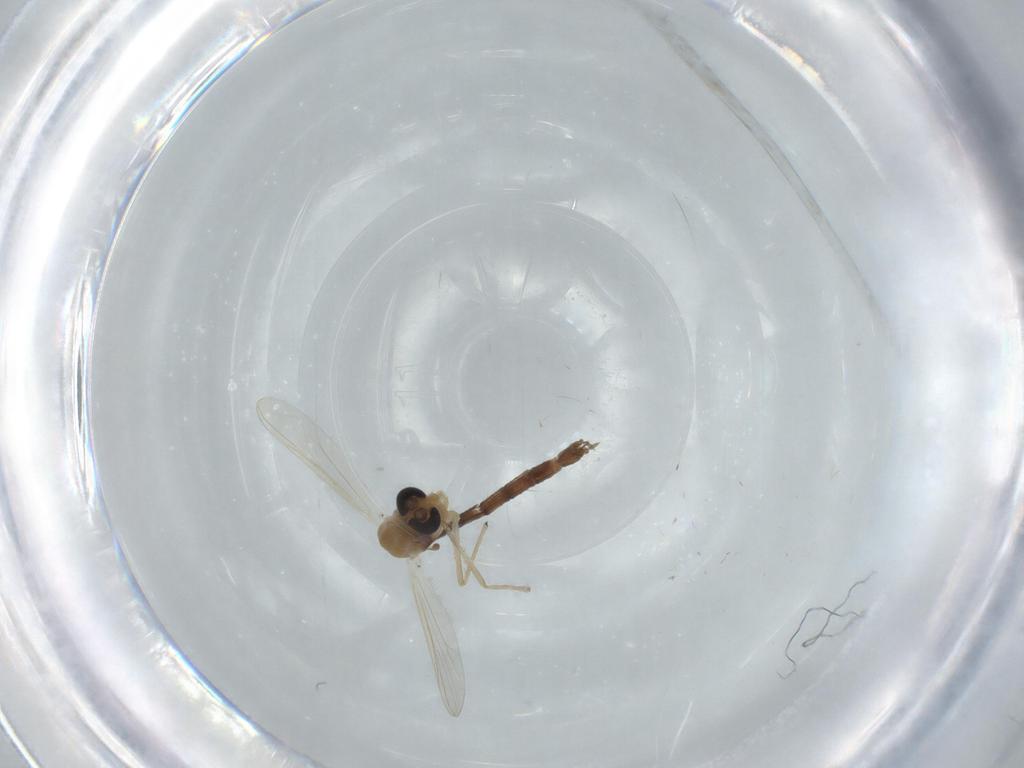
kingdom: Animalia
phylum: Arthropoda
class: Insecta
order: Diptera
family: Sphaeroceridae
